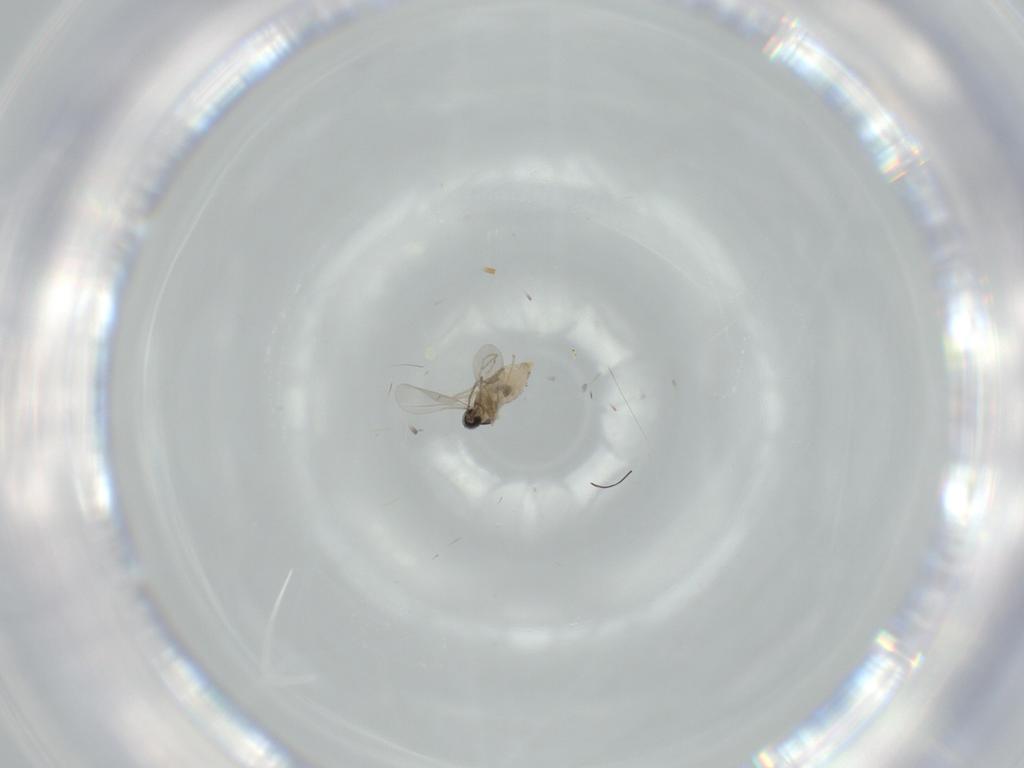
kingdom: Animalia
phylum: Arthropoda
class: Insecta
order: Diptera
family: Cecidomyiidae
